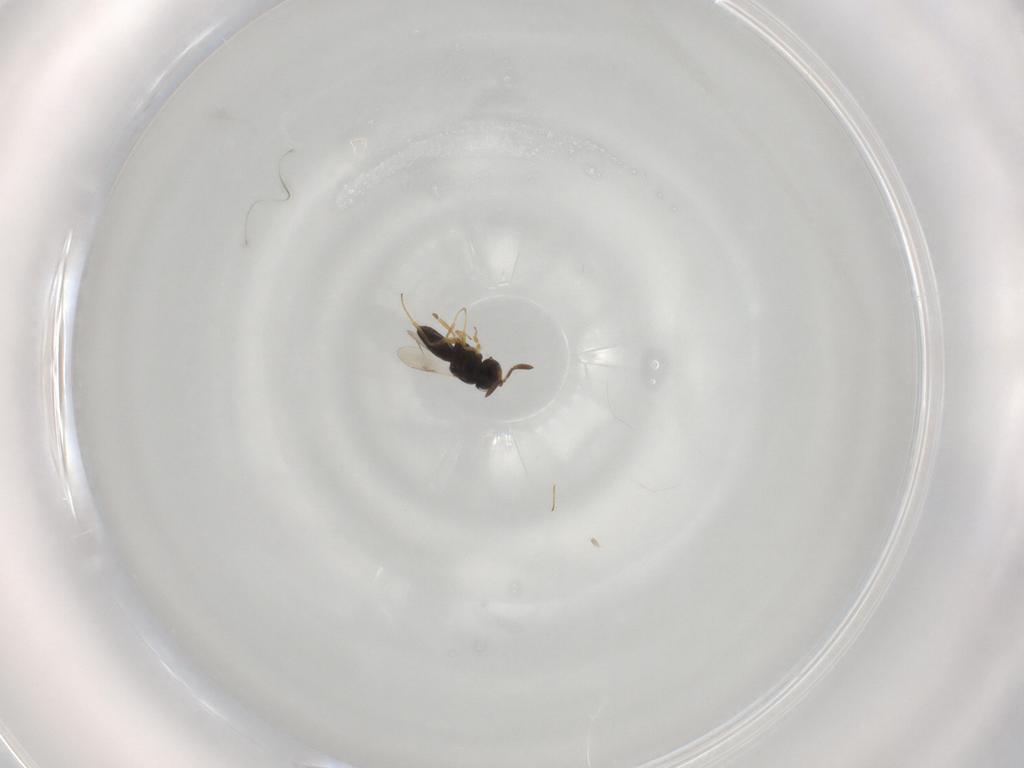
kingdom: Animalia
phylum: Arthropoda
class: Insecta
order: Hymenoptera
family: Scelionidae
